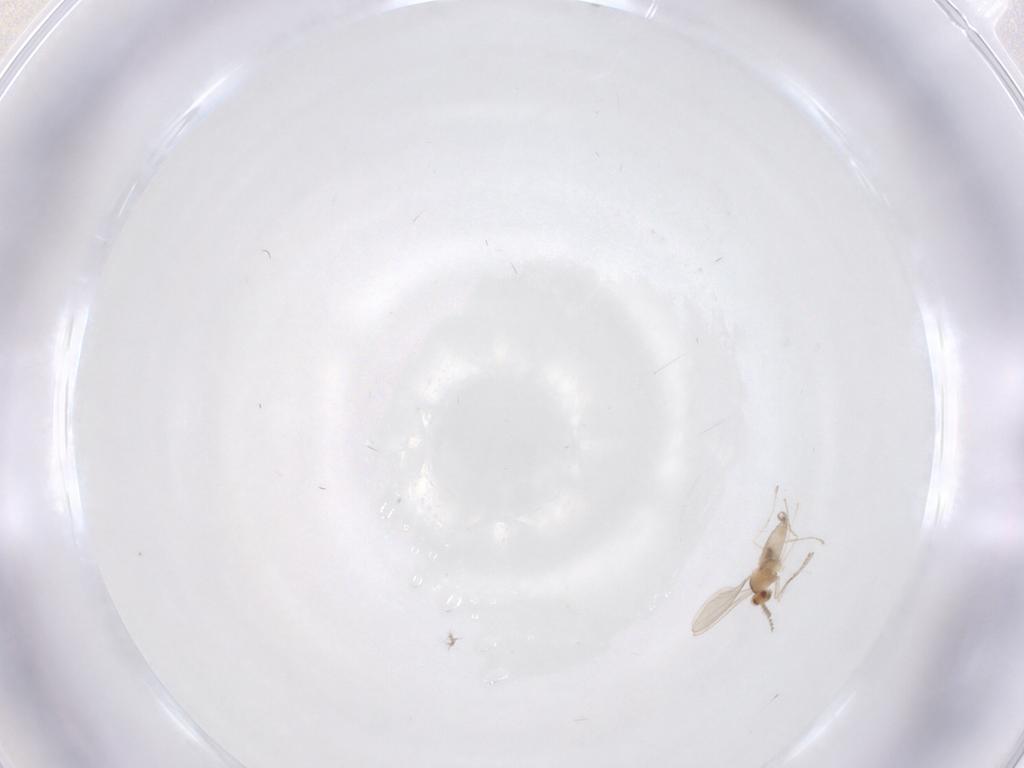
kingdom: Animalia
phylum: Arthropoda
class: Insecta
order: Diptera
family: Cecidomyiidae
